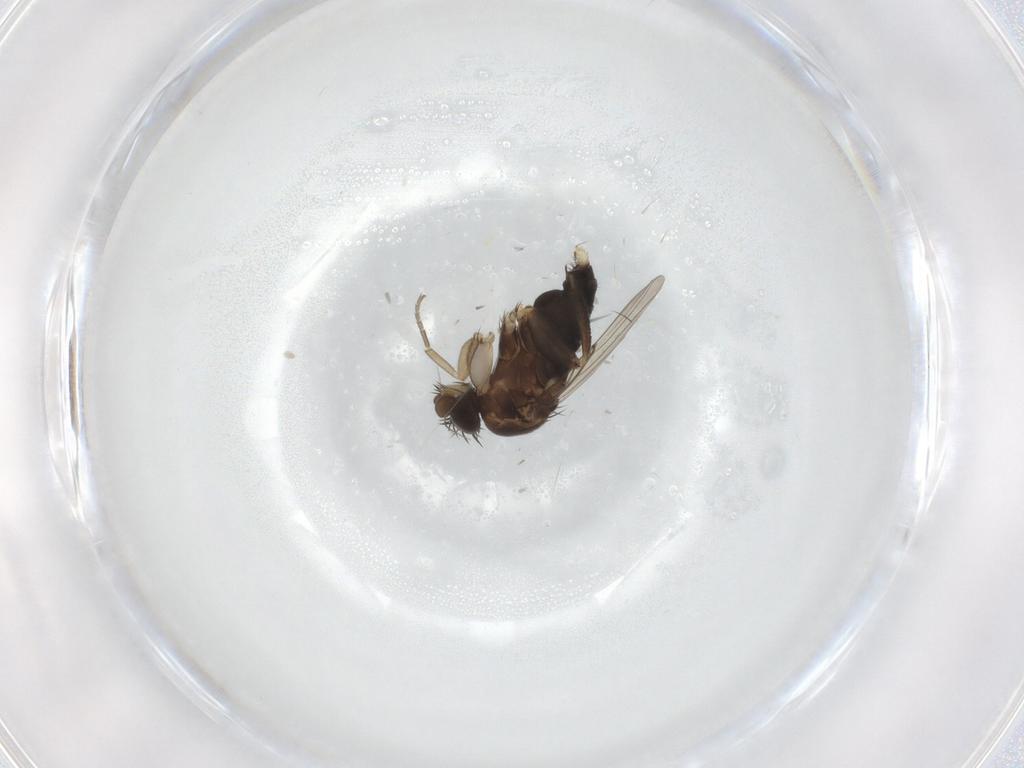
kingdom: Animalia
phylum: Arthropoda
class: Insecta
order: Diptera
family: Phoridae
